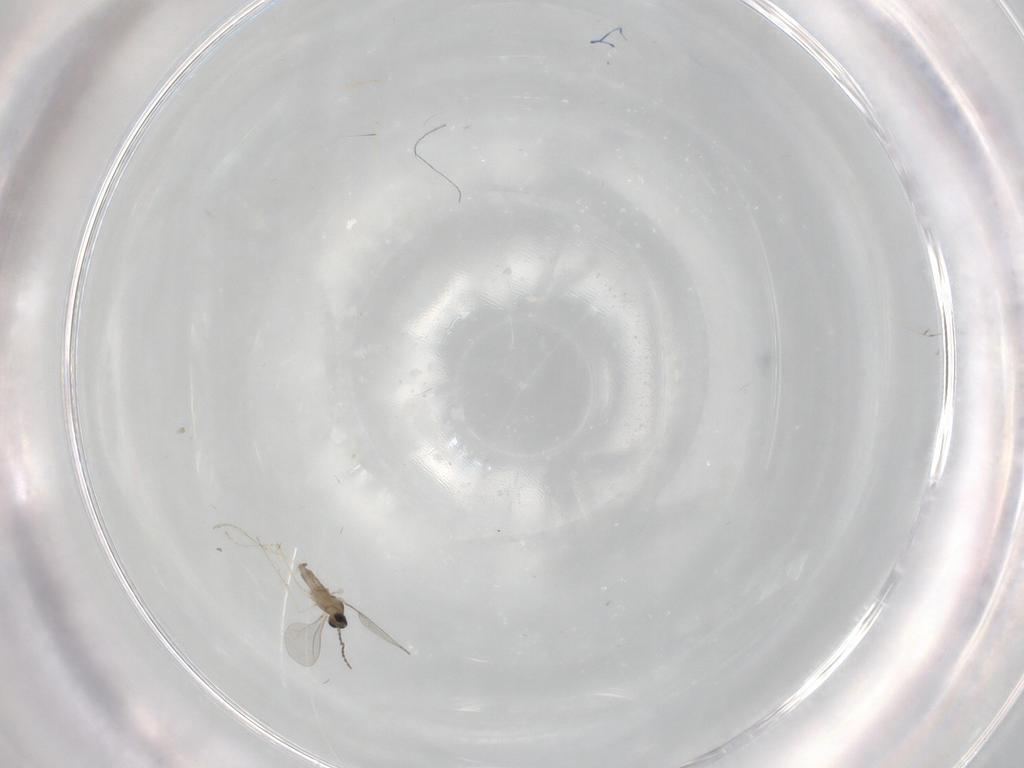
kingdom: Animalia
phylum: Arthropoda
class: Insecta
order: Diptera
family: Cecidomyiidae
